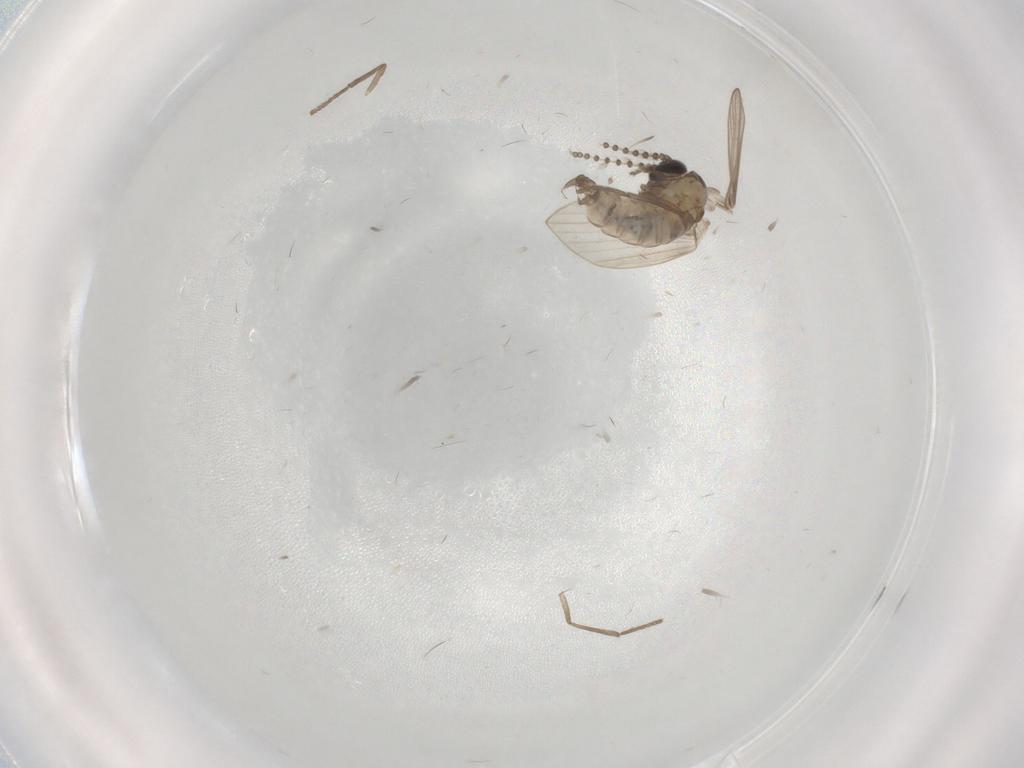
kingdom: Animalia
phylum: Arthropoda
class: Insecta
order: Diptera
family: Psychodidae
